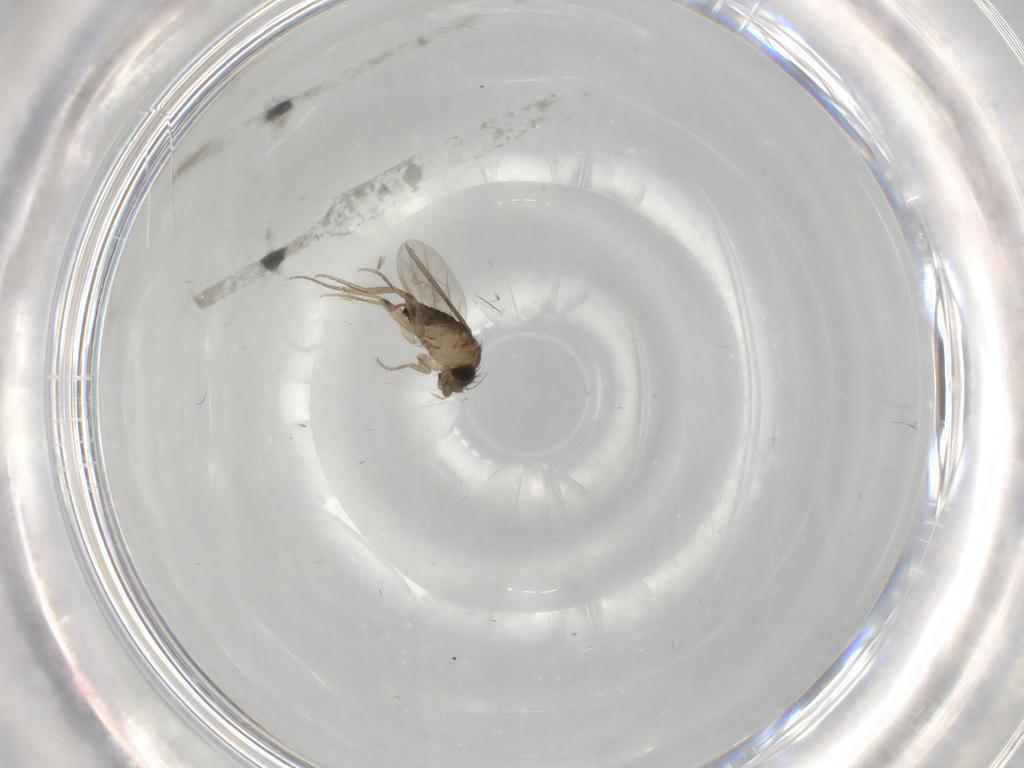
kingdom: Animalia
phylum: Arthropoda
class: Insecta
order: Diptera
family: Phoridae
